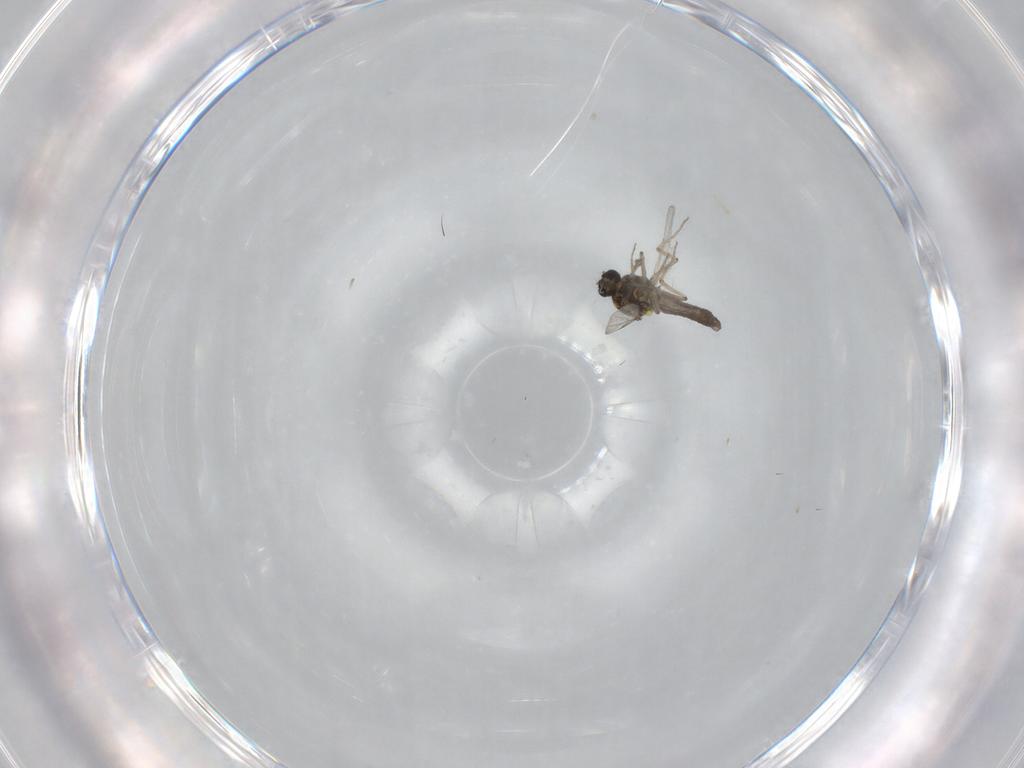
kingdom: Animalia
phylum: Arthropoda
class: Insecta
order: Diptera
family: Ceratopogonidae
